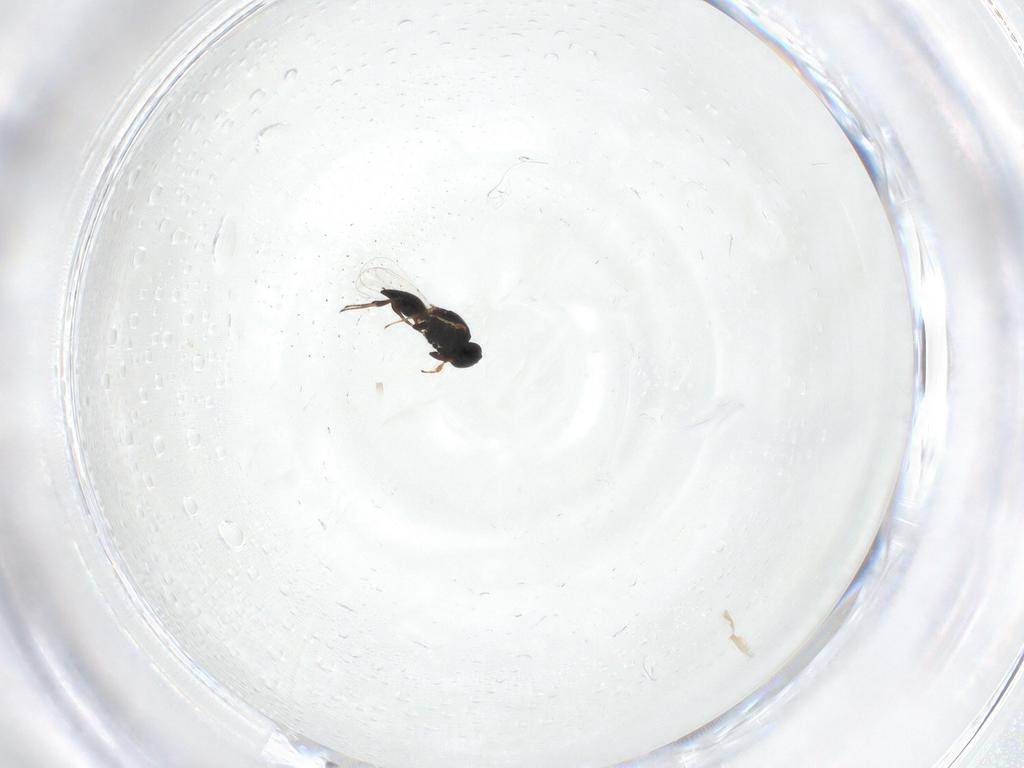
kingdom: Animalia
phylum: Arthropoda
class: Insecta
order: Hymenoptera
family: Platygastridae
